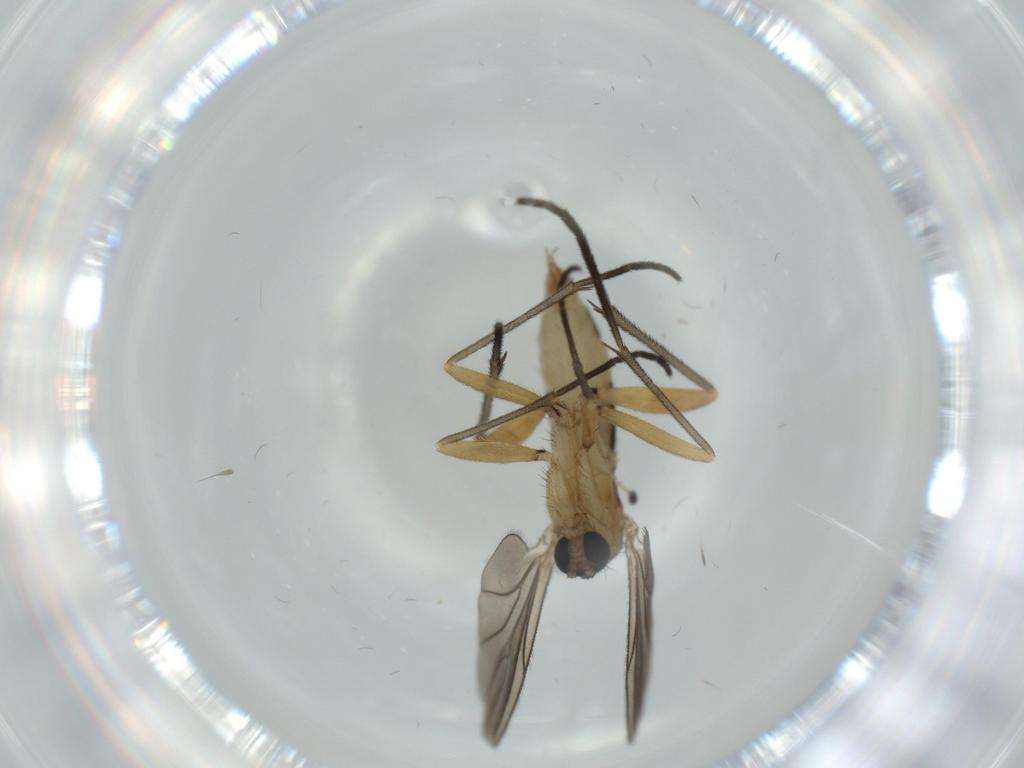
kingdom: Animalia
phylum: Arthropoda
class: Insecta
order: Diptera
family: Sciaridae
